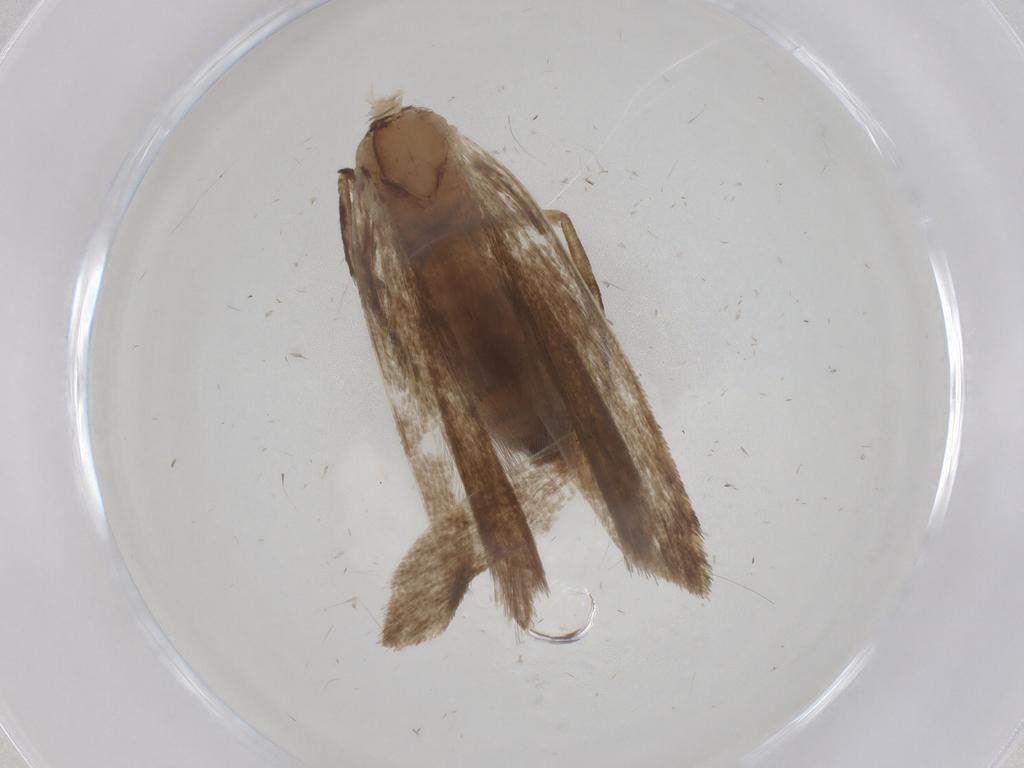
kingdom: Animalia
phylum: Arthropoda
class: Insecta
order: Lepidoptera
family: Gelechiidae
